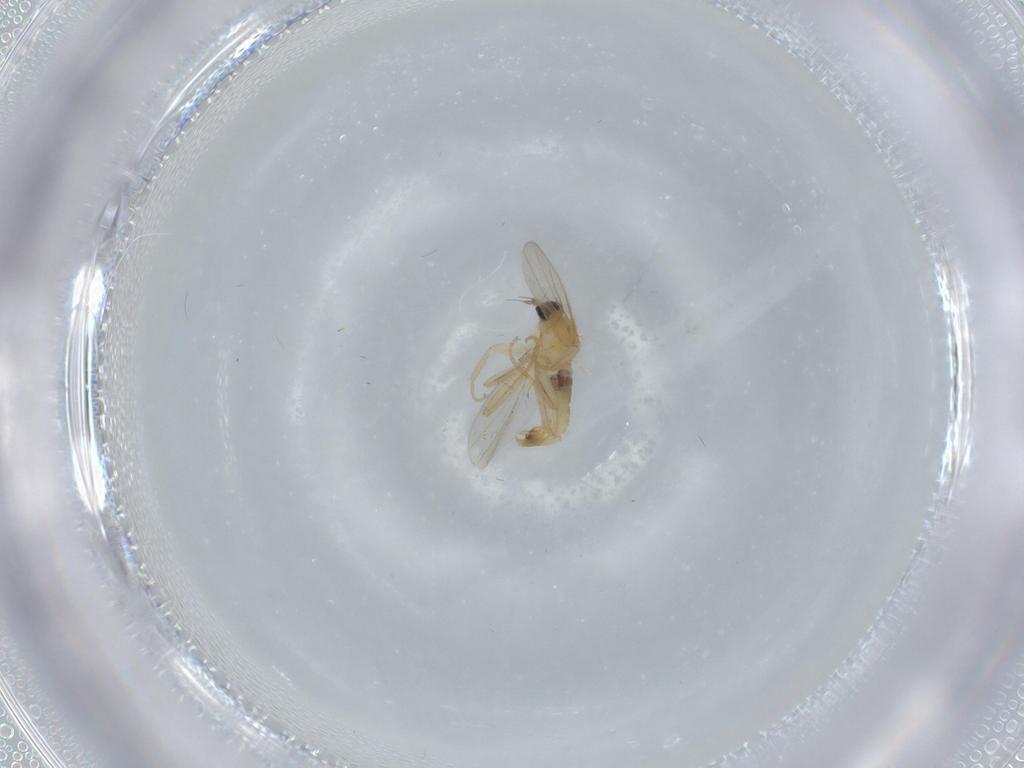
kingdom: Animalia
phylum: Arthropoda
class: Insecta
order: Diptera
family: Hybotidae
